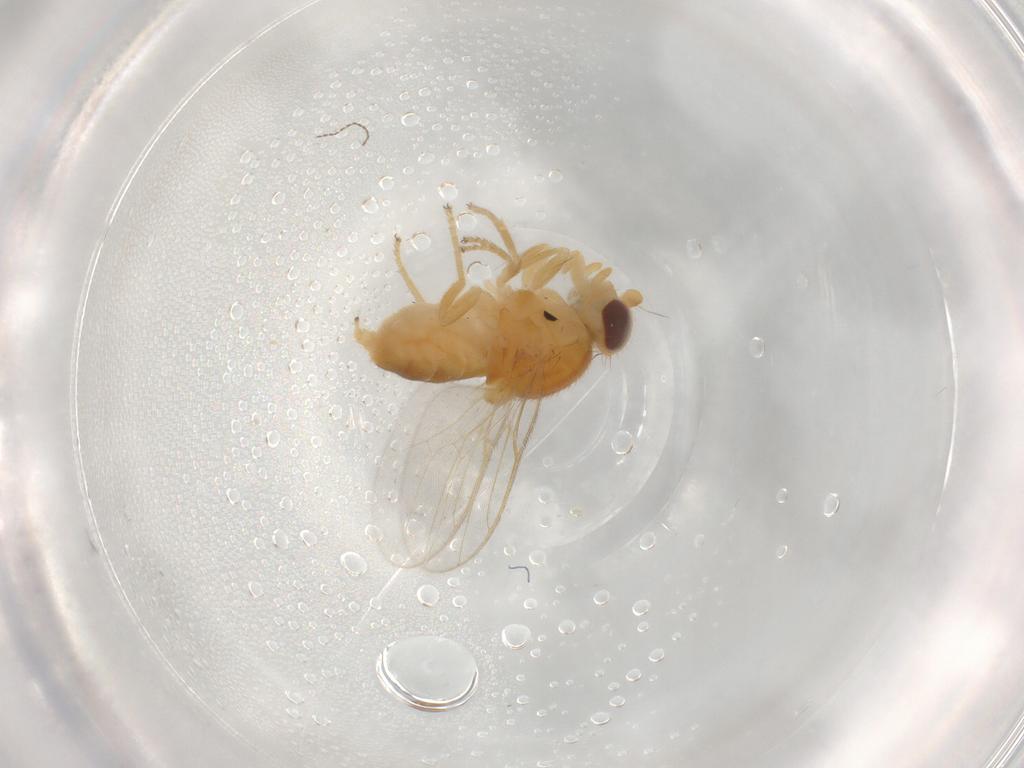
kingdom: Animalia
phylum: Arthropoda
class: Insecta
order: Diptera
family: Chloropidae
